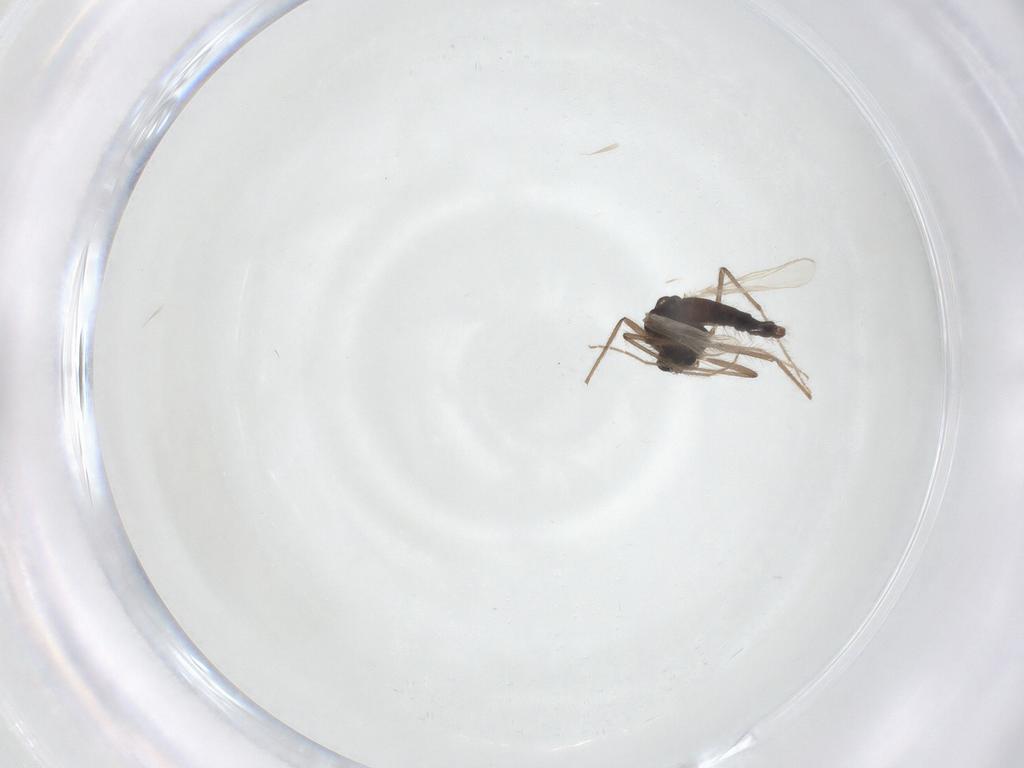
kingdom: Animalia
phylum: Arthropoda
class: Insecta
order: Diptera
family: Chironomidae
